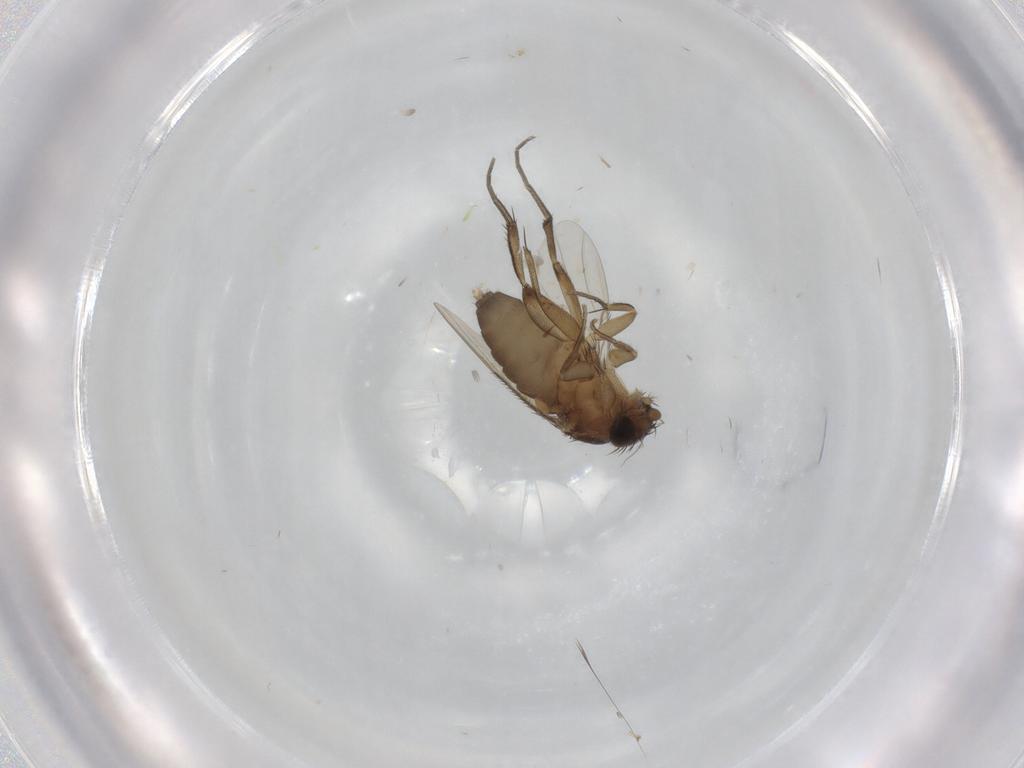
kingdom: Animalia
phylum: Arthropoda
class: Insecta
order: Diptera
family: Phoridae
